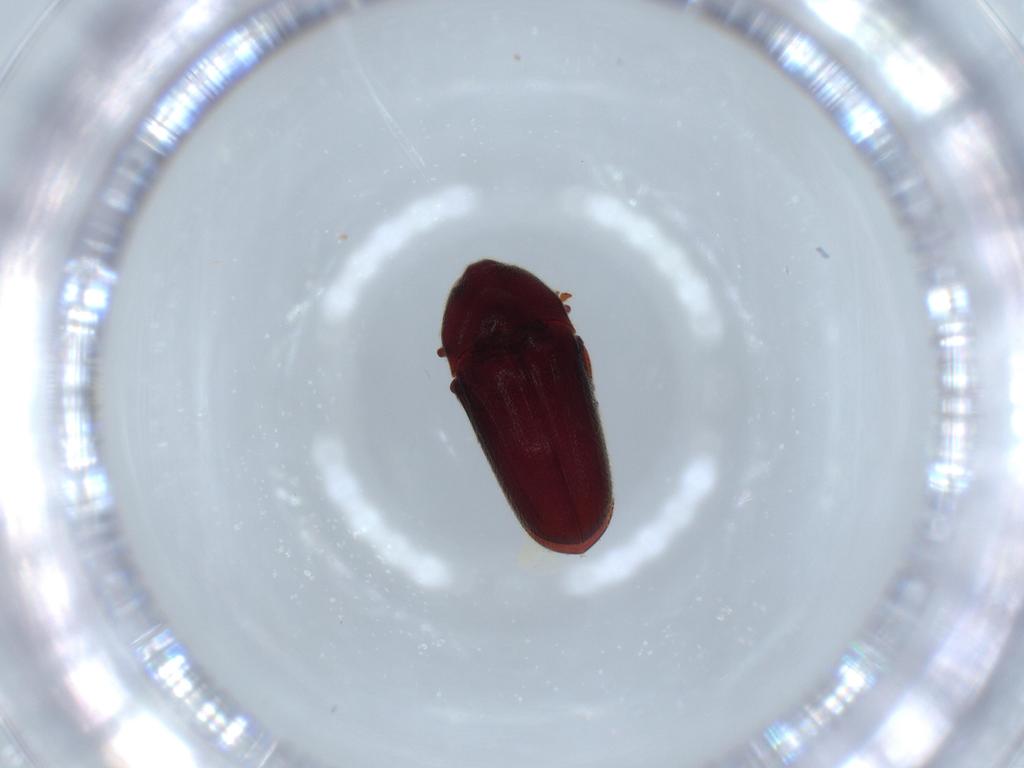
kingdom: Animalia
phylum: Arthropoda
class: Insecta
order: Coleoptera
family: Throscidae
